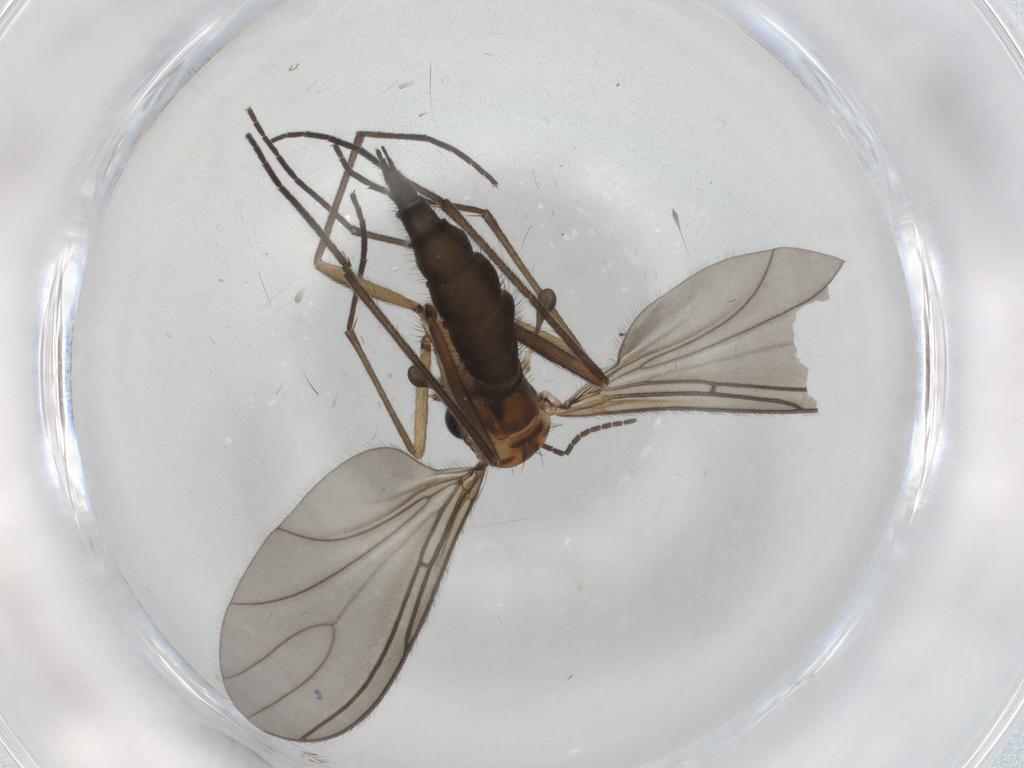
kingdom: Animalia
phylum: Arthropoda
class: Insecta
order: Diptera
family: Sciaridae
